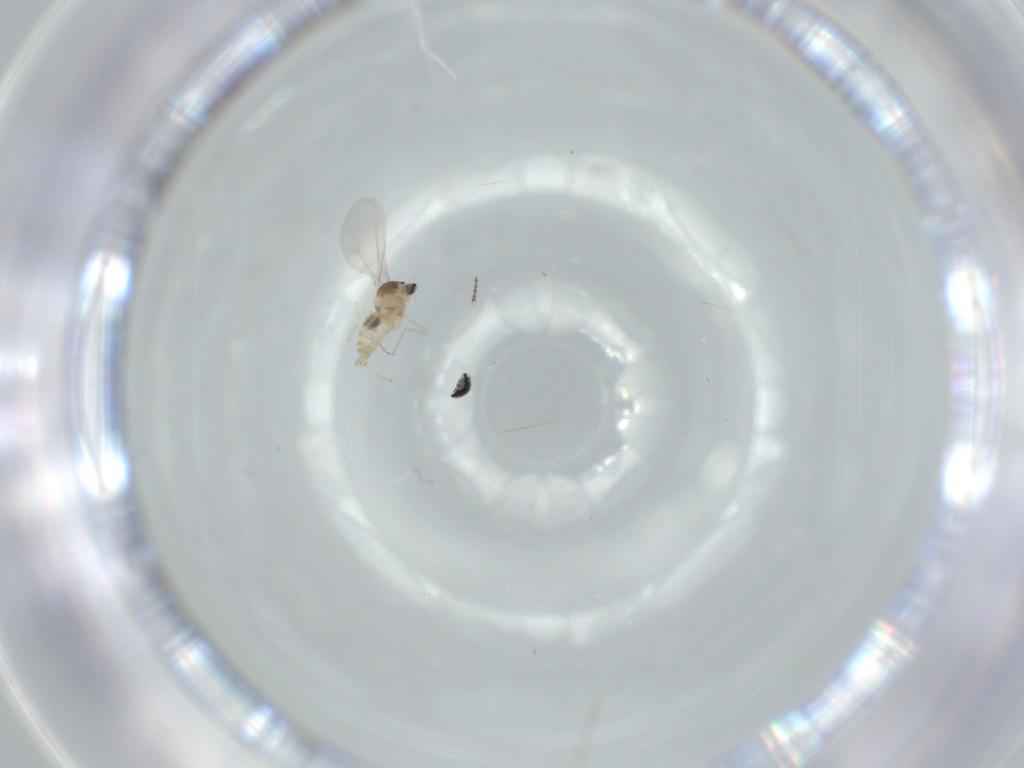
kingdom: Animalia
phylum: Arthropoda
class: Insecta
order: Diptera
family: Cecidomyiidae
